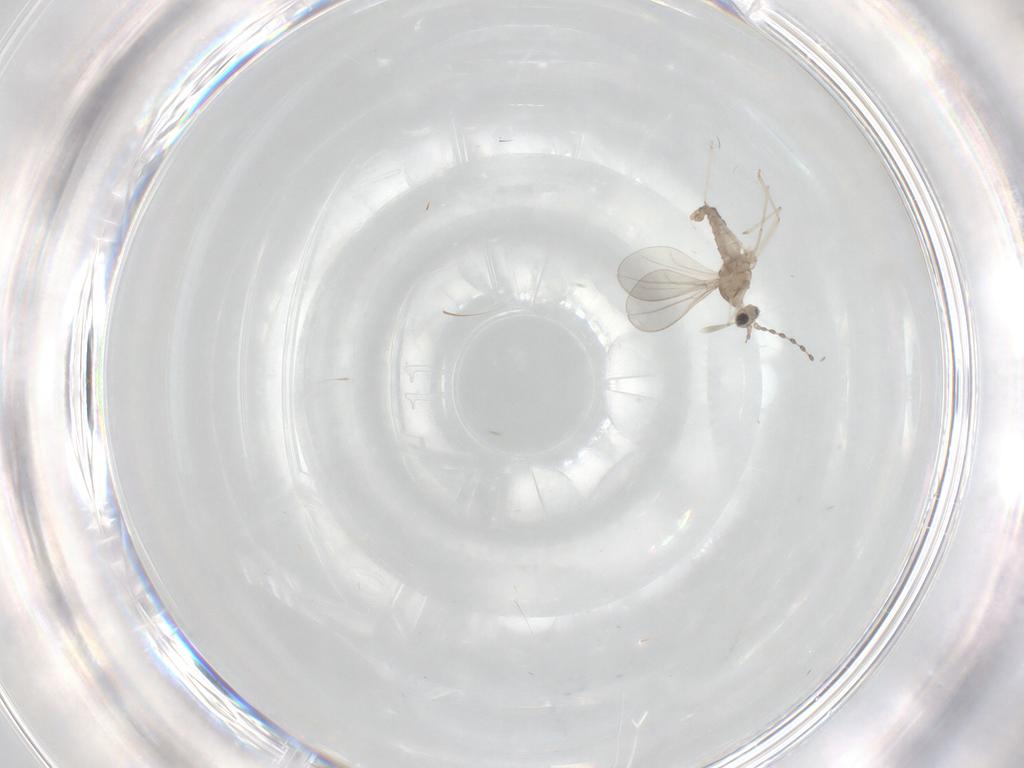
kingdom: Animalia
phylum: Arthropoda
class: Insecta
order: Diptera
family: Cecidomyiidae
